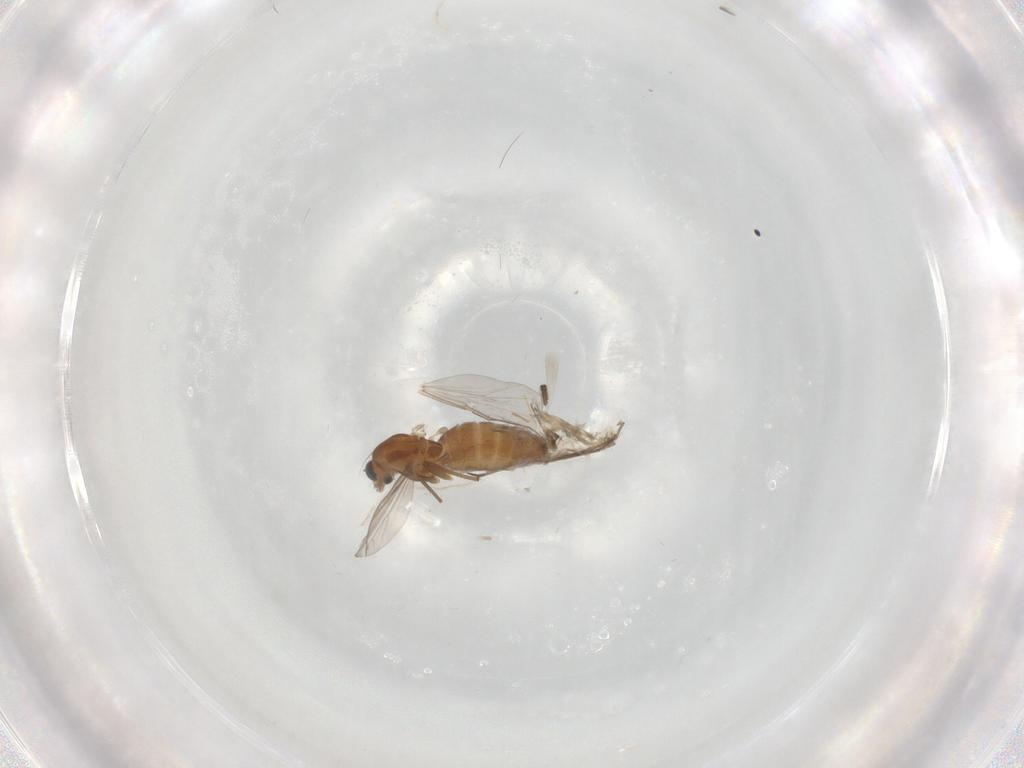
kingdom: Animalia
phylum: Arthropoda
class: Insecta
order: Diptera
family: Chironomidae
